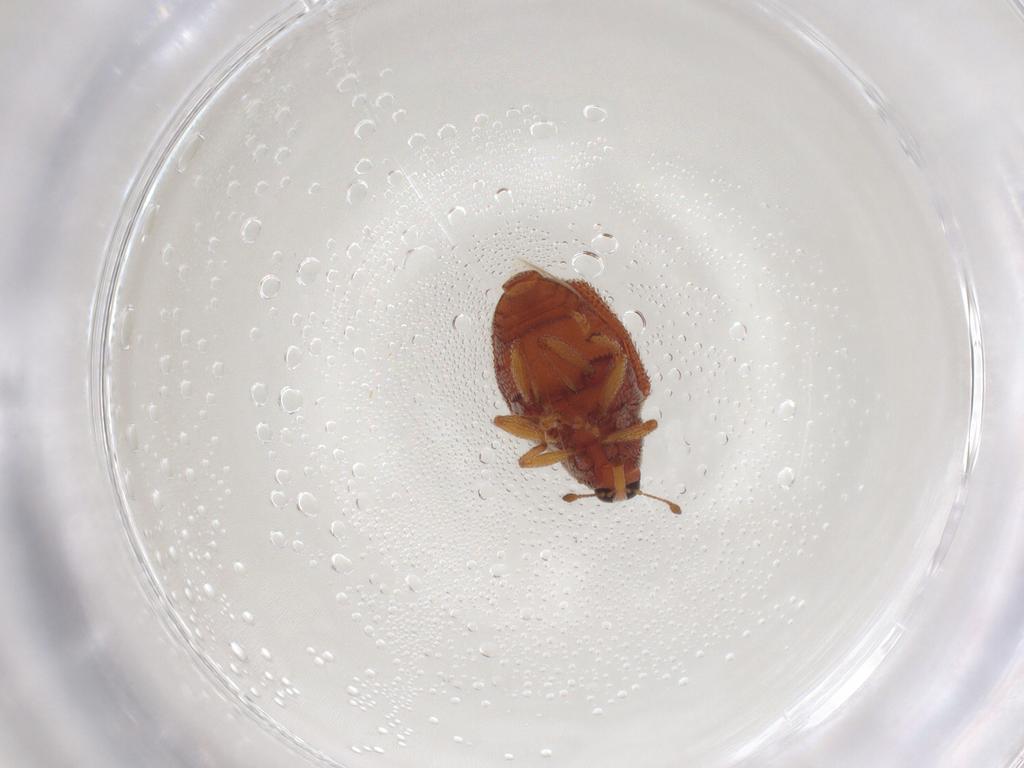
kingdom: Animalia
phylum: Arthropoda
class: Insecta
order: Coleoptera
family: Curculionidae
